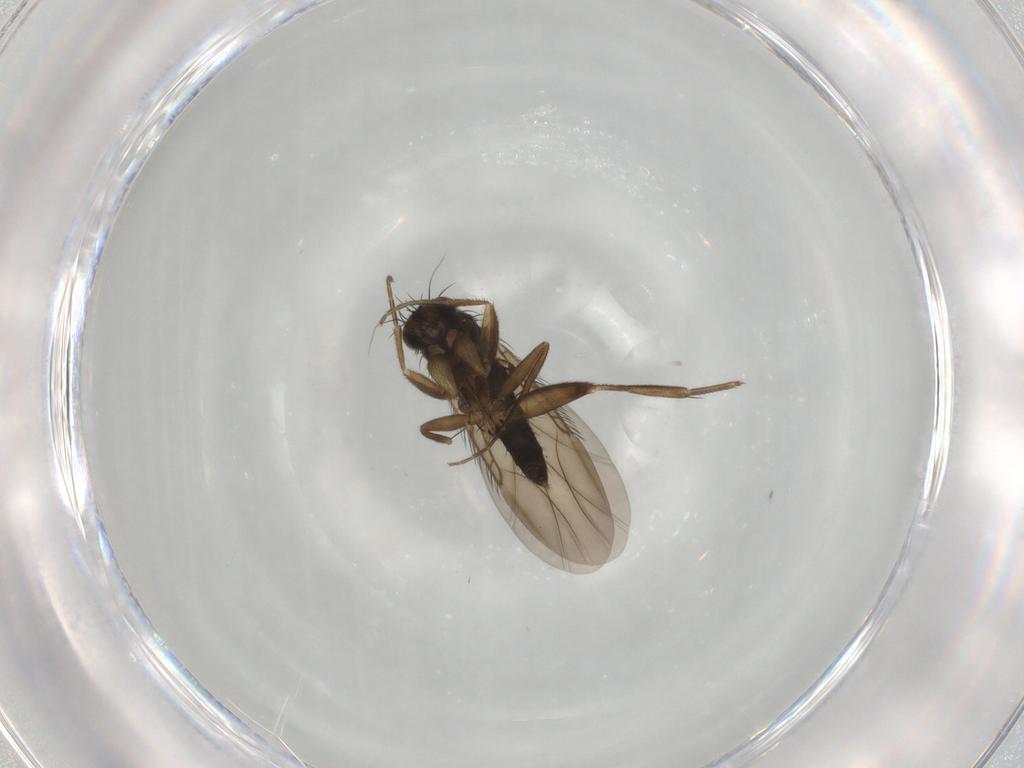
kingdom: Animalia
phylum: Arthropoda
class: Insecta
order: Diptera
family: Phoridae
